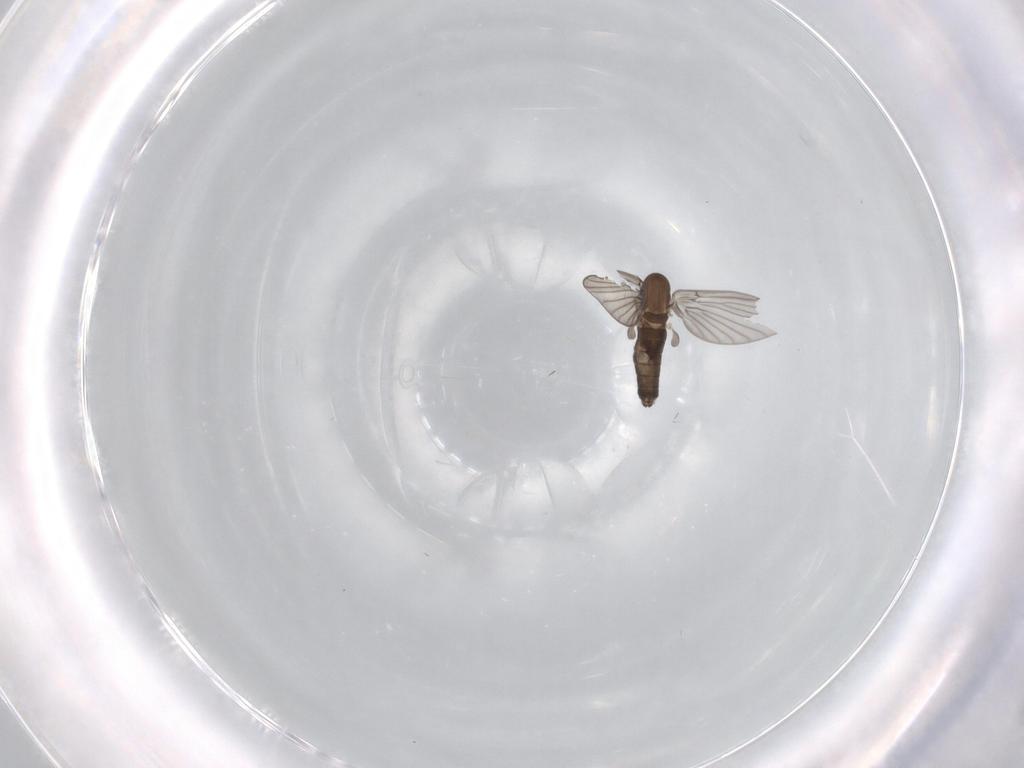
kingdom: Animalia
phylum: Arthropoda
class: Insecta
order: Diptera
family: Psychodidae
